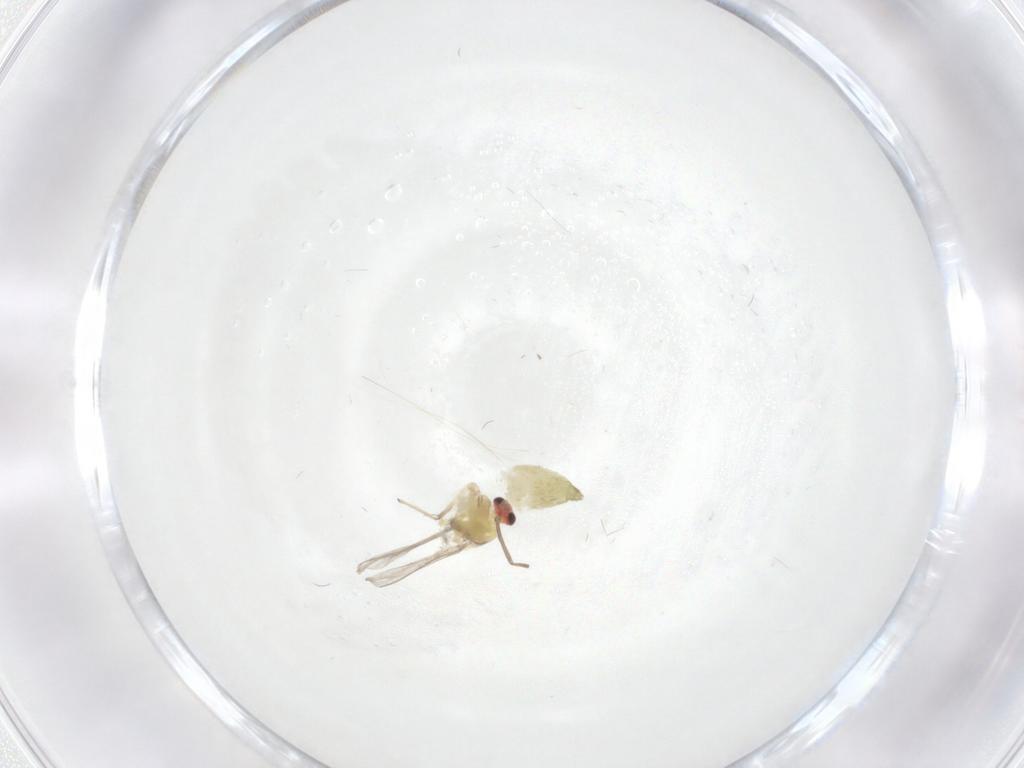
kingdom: Animalia
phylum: Arthropoda
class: Insecta
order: Diptera
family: Chironomidae
